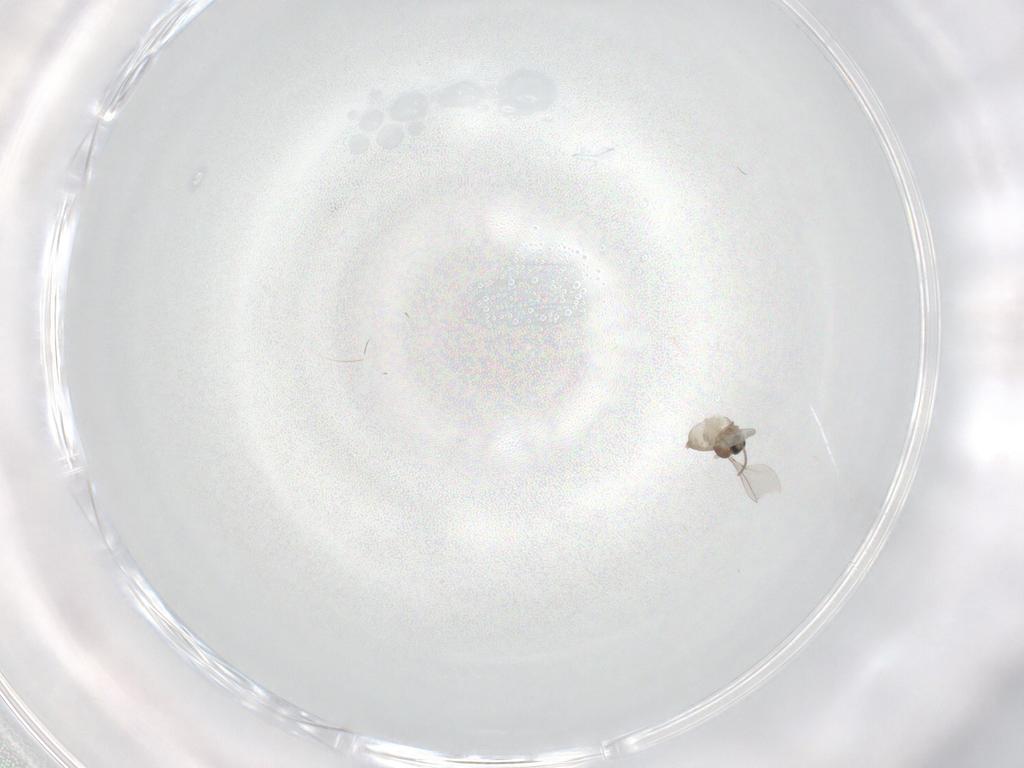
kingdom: Animalia
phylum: Arthropoda
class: Insecta
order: Diptera
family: Cecidomyiidae
